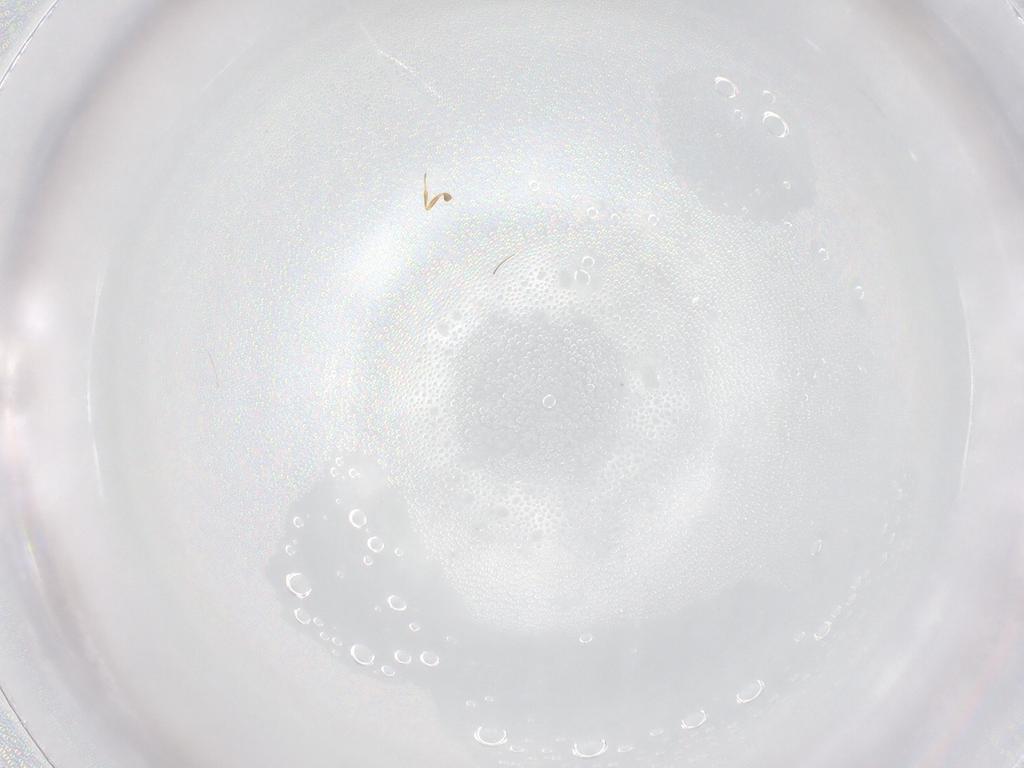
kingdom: Animalia
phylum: Arthropoda
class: Insecta
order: Hymenoptera
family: Scelionidae
